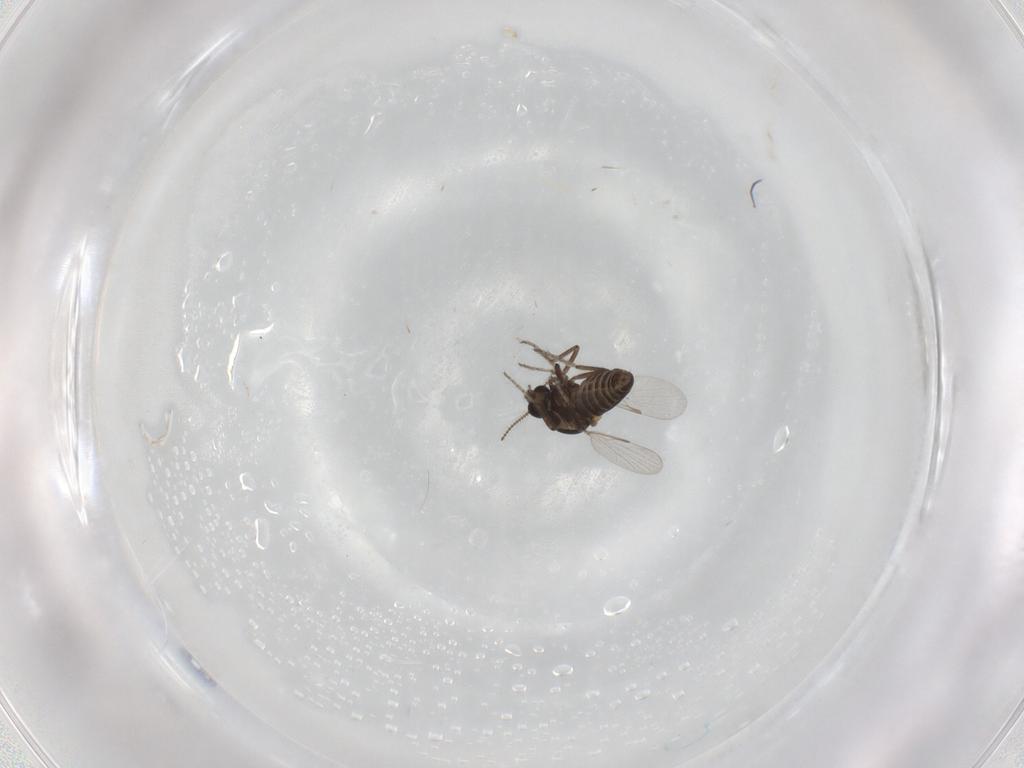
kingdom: Animalia
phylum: Arthropoda
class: Insecta
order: Diptera
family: Ceratopogonidae
